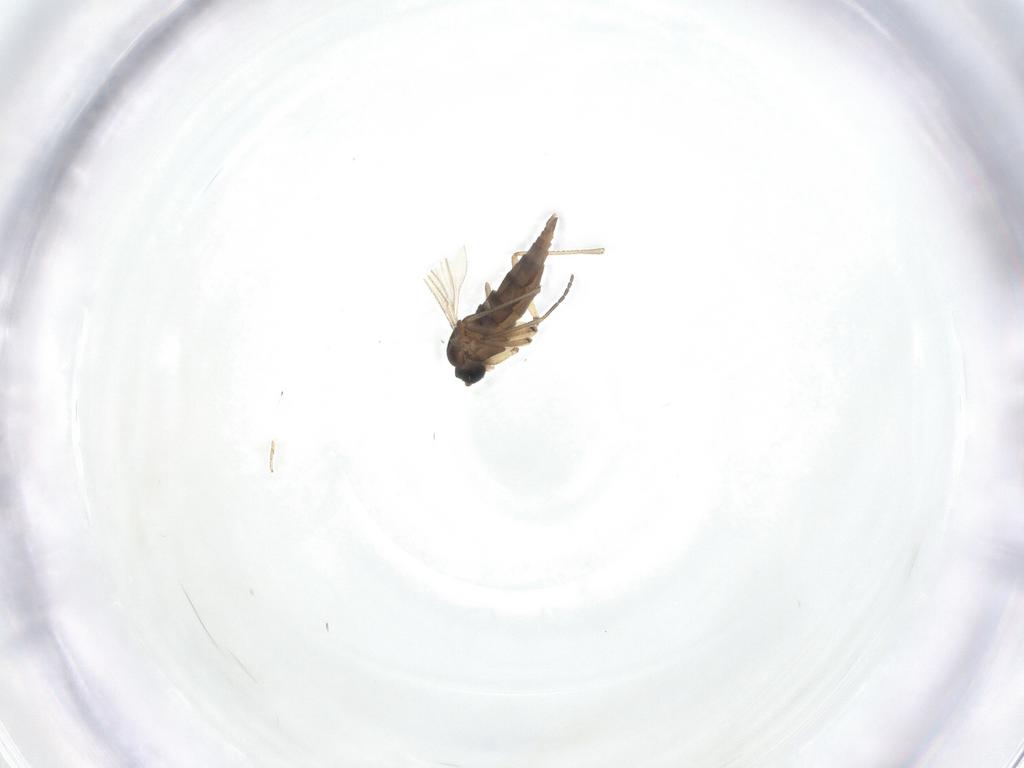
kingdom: Animalia
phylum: Arthropoda
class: Insecta
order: Diptera
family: Sciaridae
